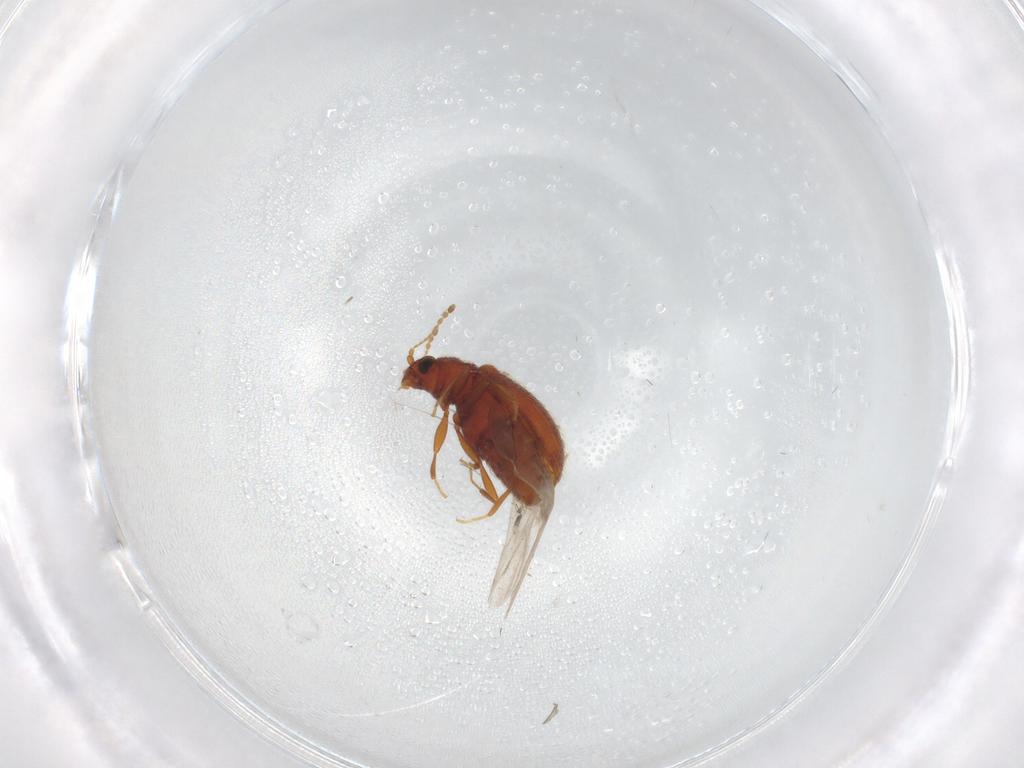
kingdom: Animalia
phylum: Arthropoda
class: Insecta
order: Coleoptera
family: Latridiidae
